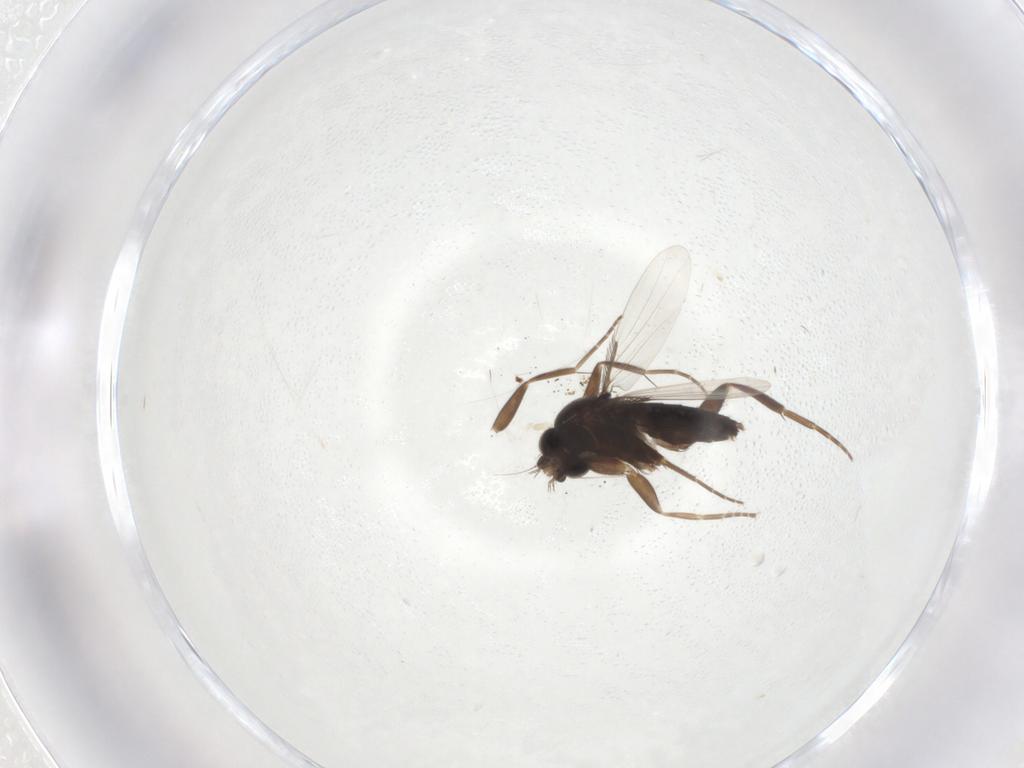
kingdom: Animalia
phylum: Arthropoda
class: Insecta
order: Diptera
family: Phoridae
